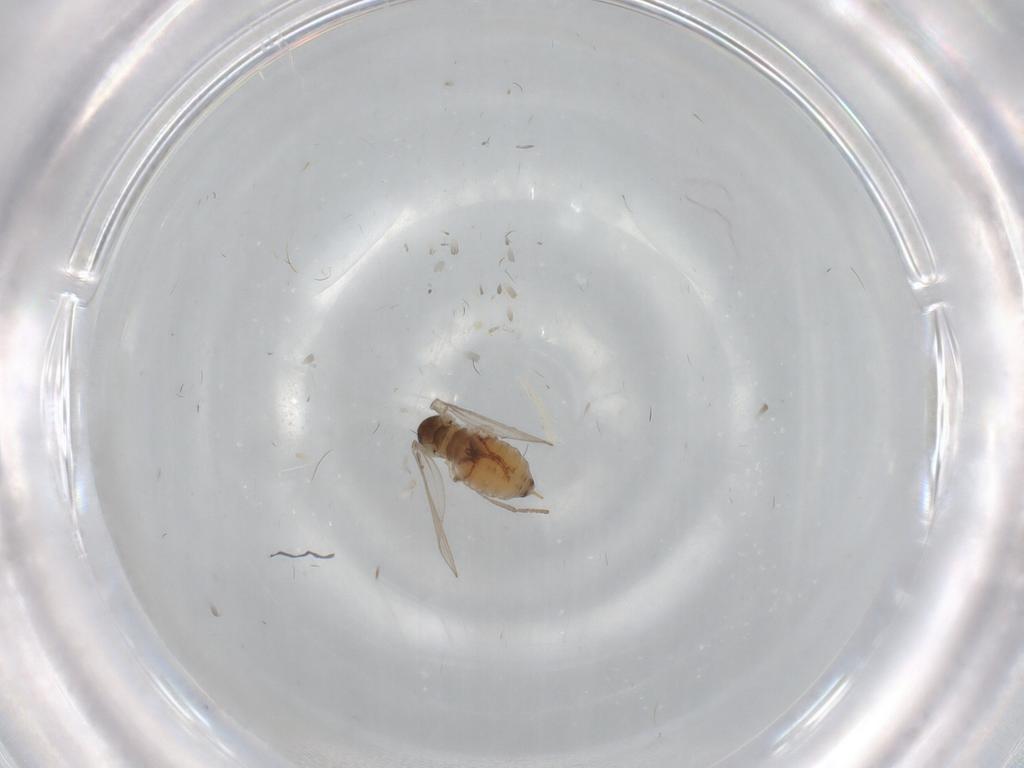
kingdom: Animalia
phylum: Arthropoda
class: Insecta
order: Diptera
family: Psychodidae
